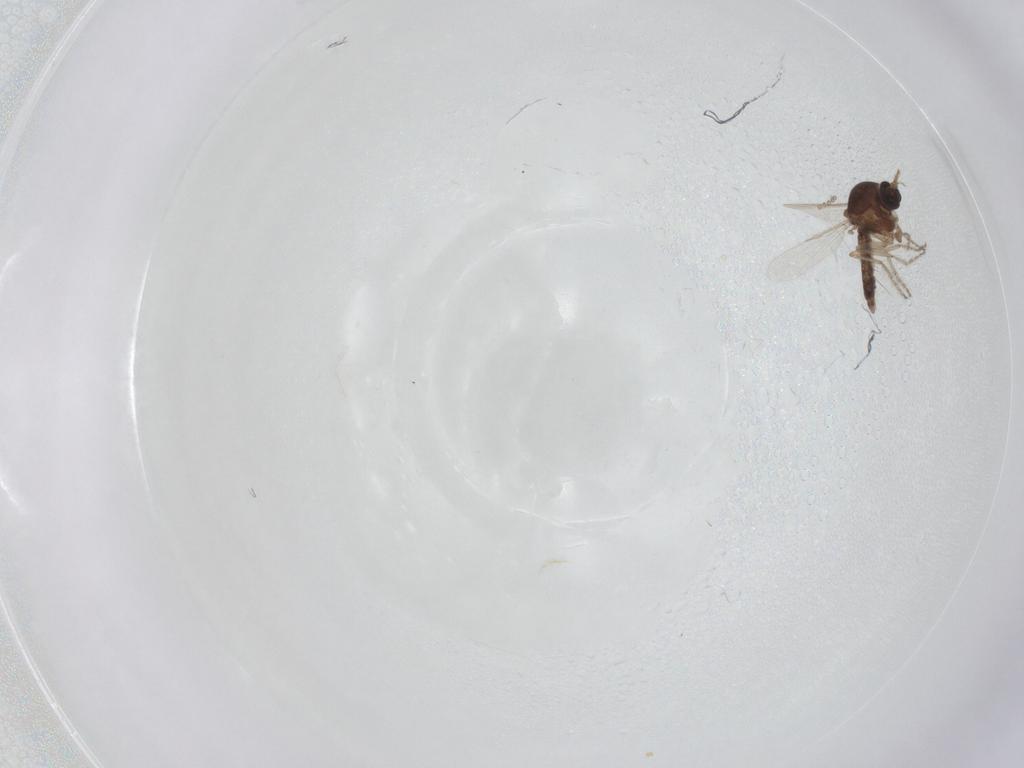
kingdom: Animalia
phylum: Arthropoda
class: Insecta
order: Diptera
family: Ceratopogonidae
